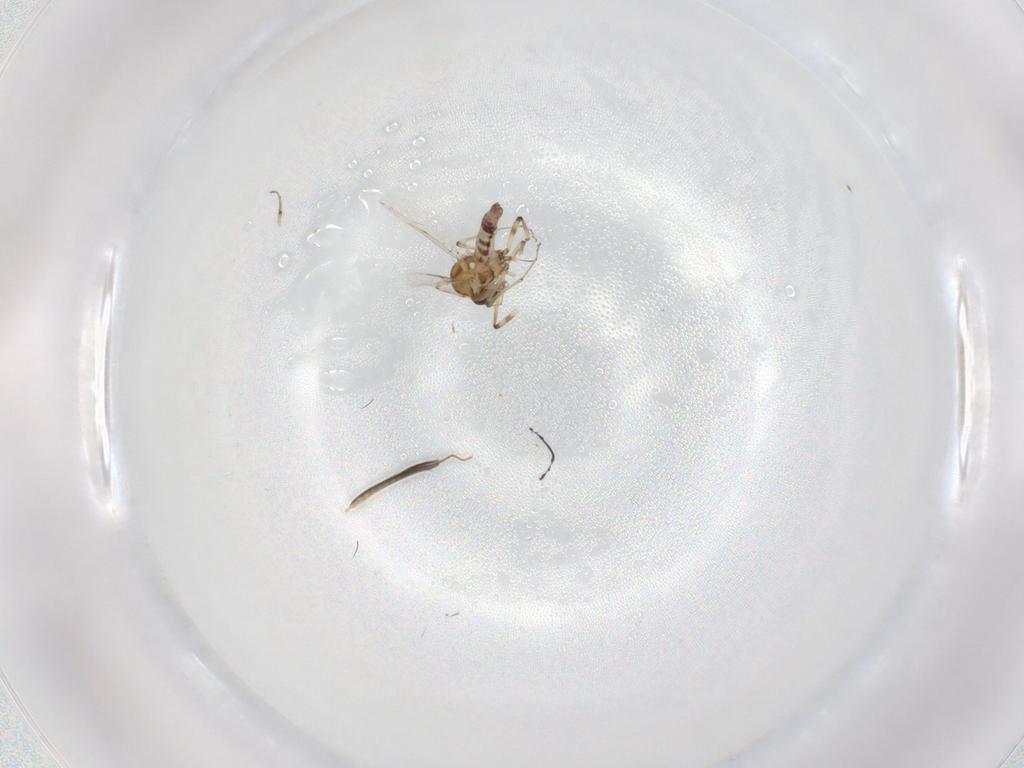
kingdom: Animalia
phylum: Arthropoda
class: Insecta
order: Diptera
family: Ceratopogonidae
